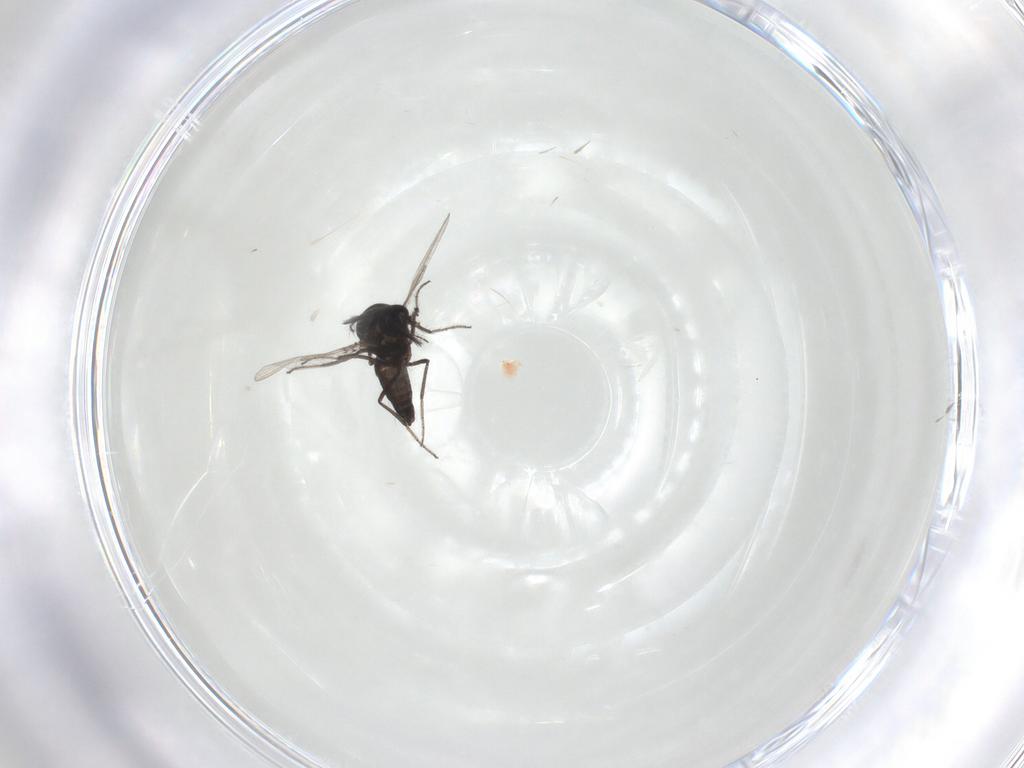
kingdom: Animalia
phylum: Arthropoda
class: Insecta
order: Diptera
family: Ceratopogonidae
